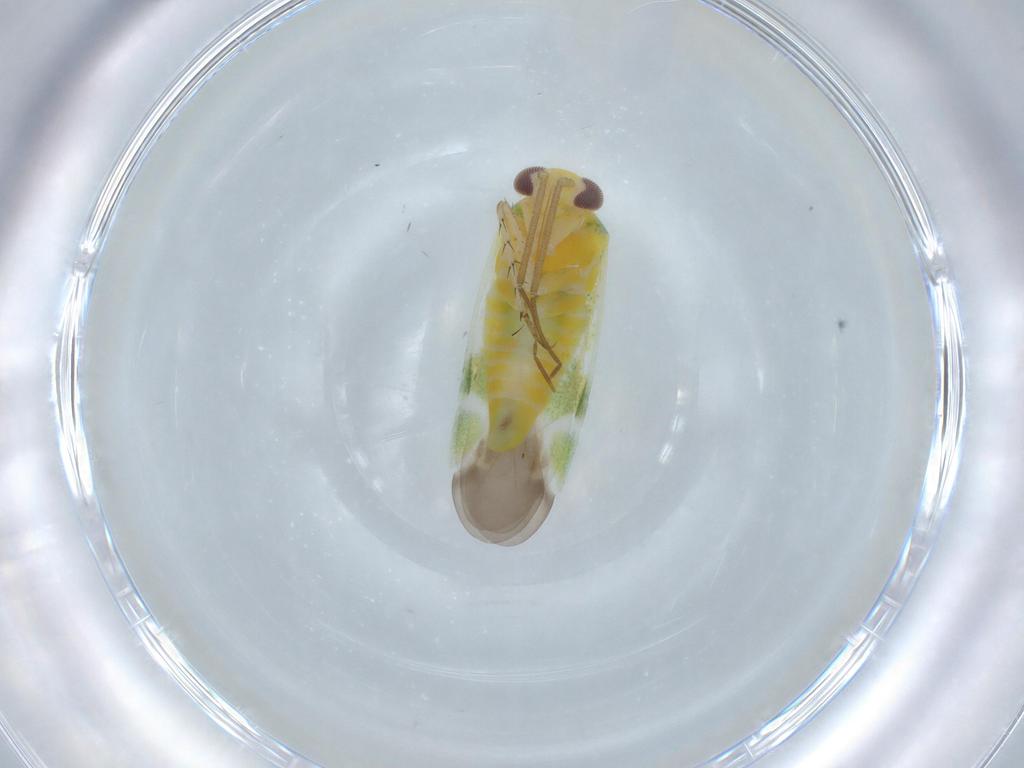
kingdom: Animalia
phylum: Arthropoda
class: Insecta
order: Hemiptera
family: Miridae
